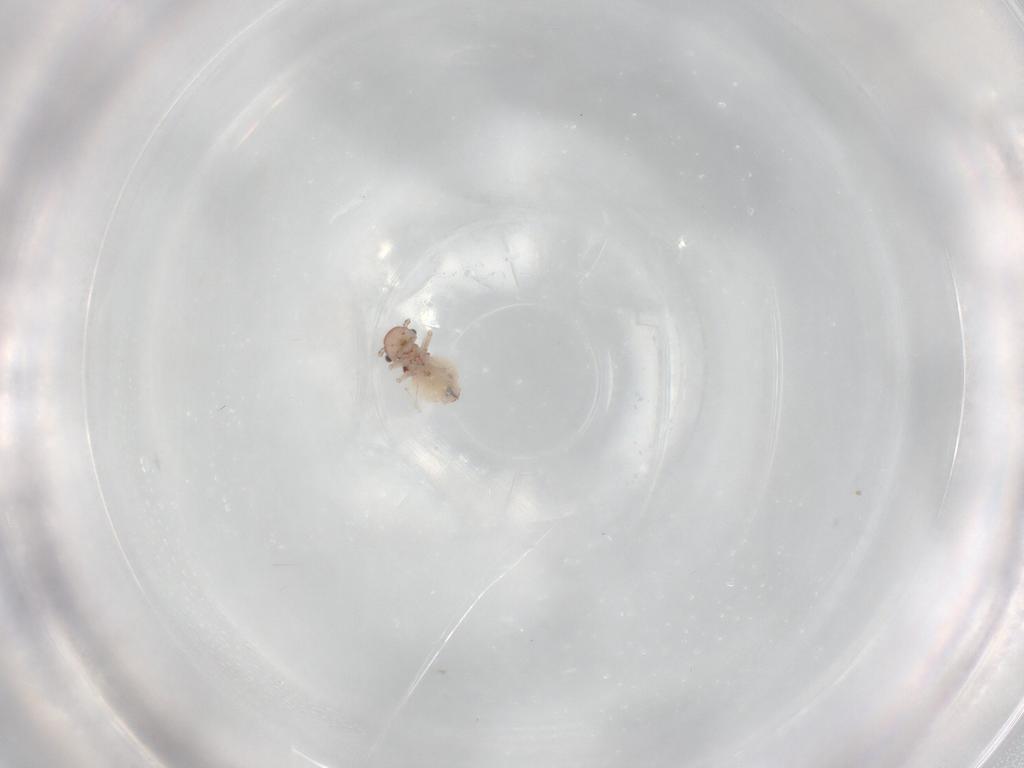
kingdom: Animalia
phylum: Arthropoda
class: Insecta
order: Psocodea
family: Ectopsocidae
